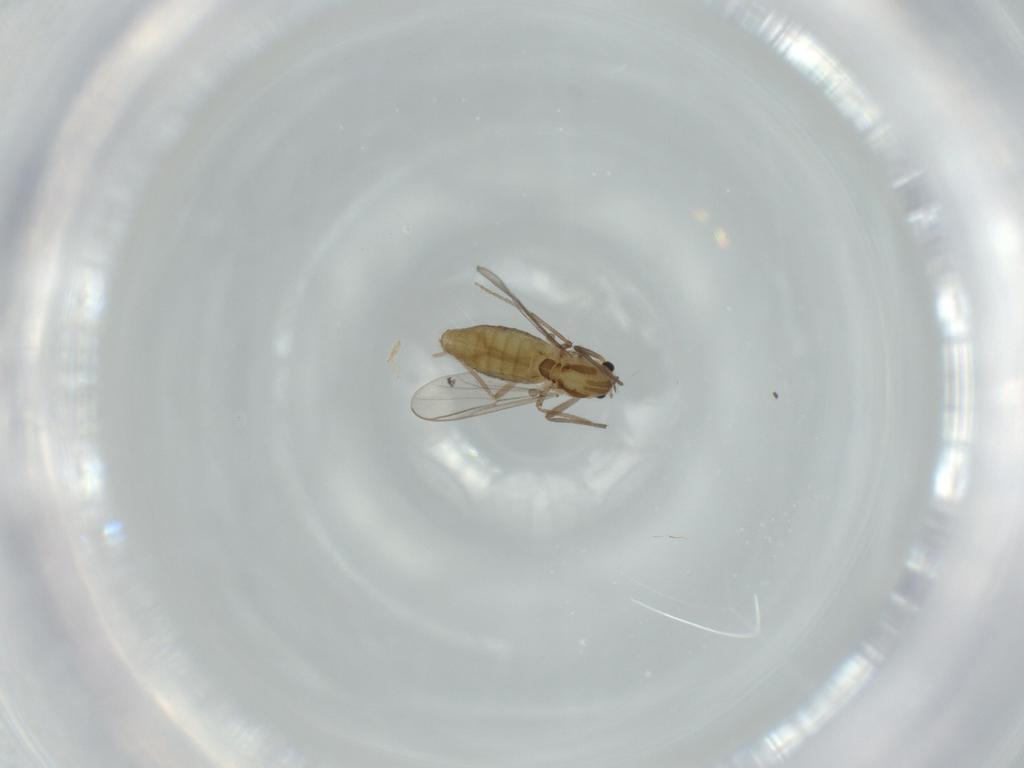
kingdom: Animalia
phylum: Arthropoda
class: Insecta
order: Diptera
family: Chironomidae
